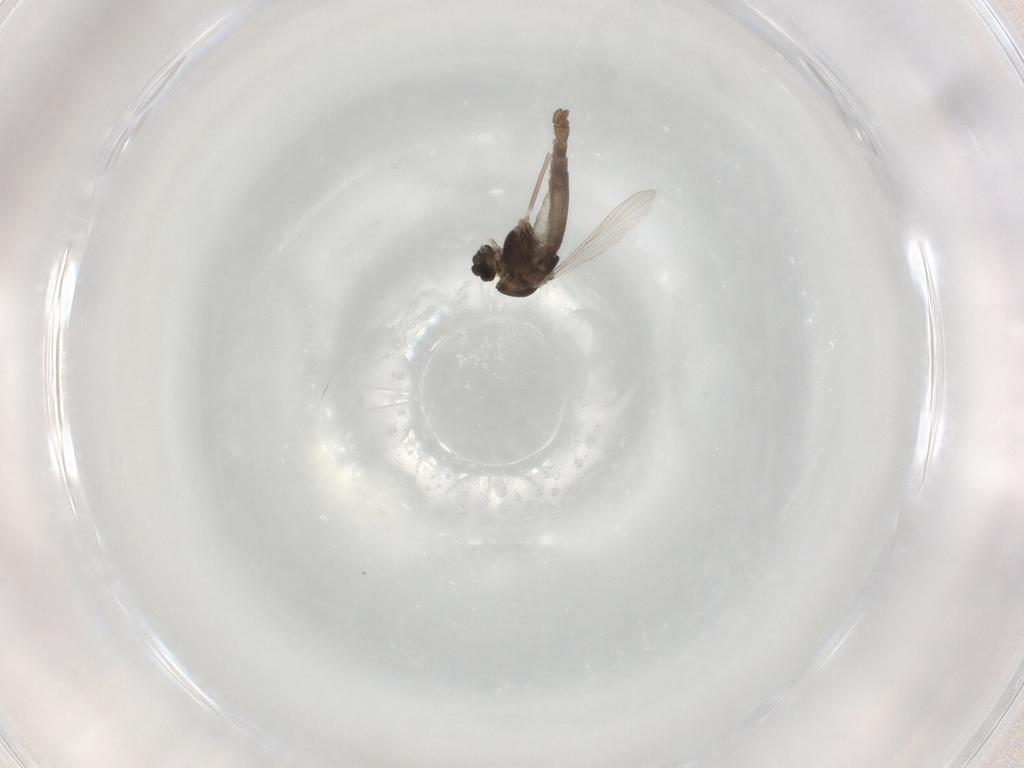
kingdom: Animalia
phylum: Arthropoda
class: Insecta
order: Diptera
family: Chironomidae
